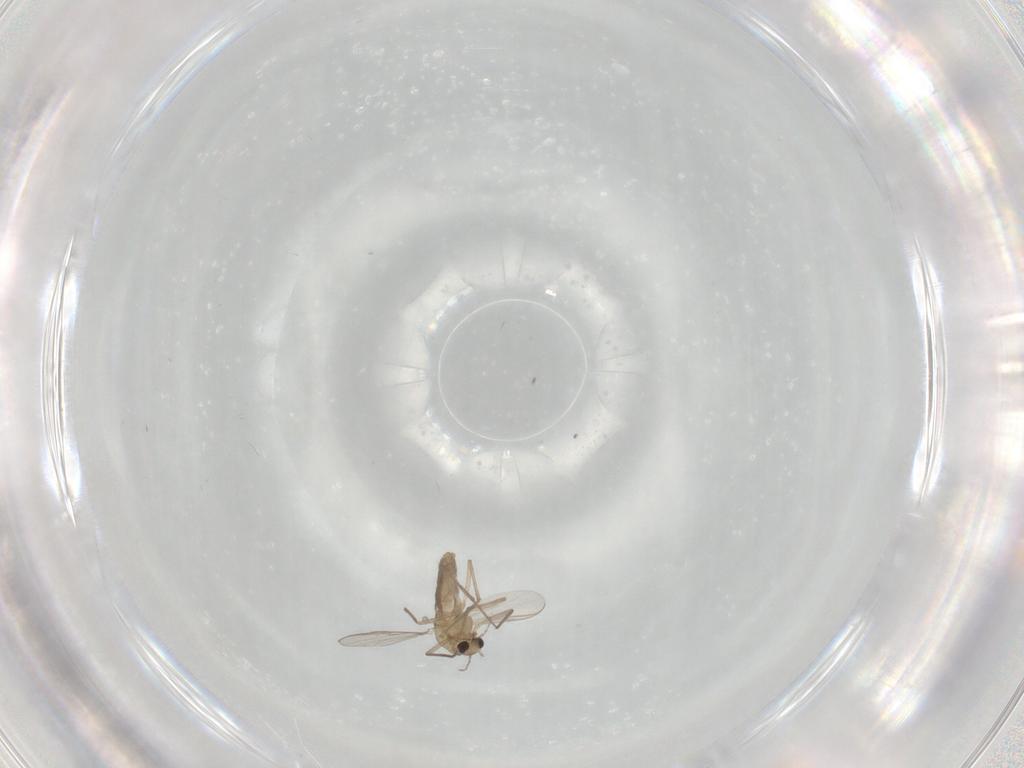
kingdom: Animalia
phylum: Arthropoda
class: Insecta
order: Diptera
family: Chironomidae
